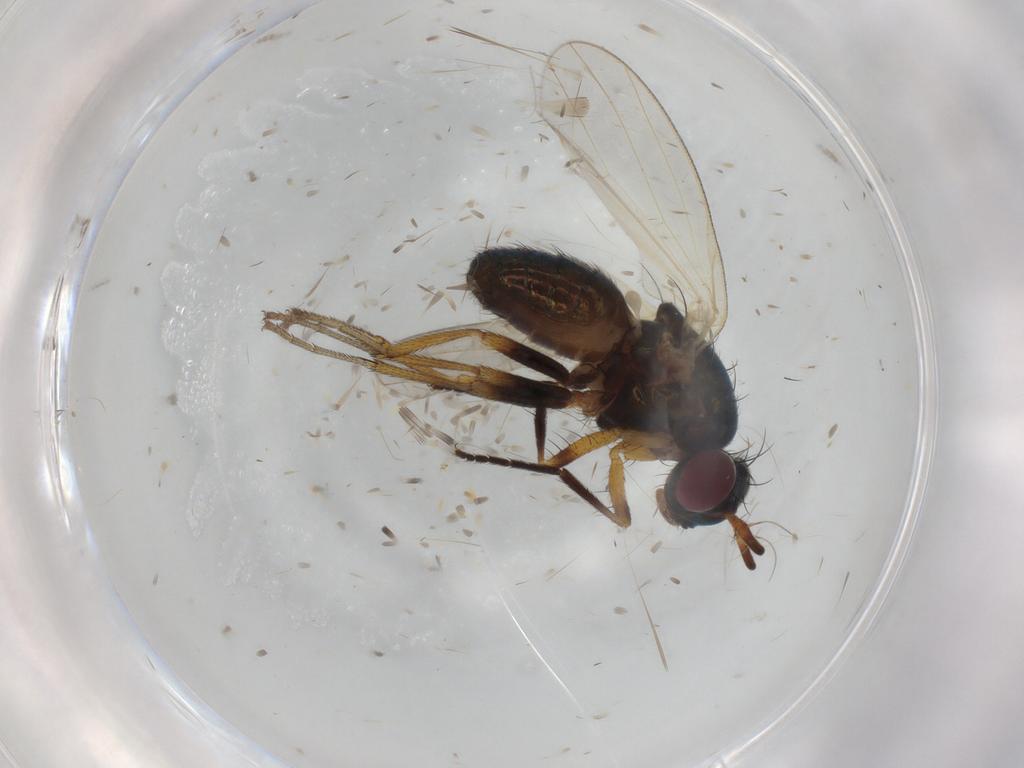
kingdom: Animalia
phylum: Arthropoda
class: Insecta
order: Diptera
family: Lauxaniidae
